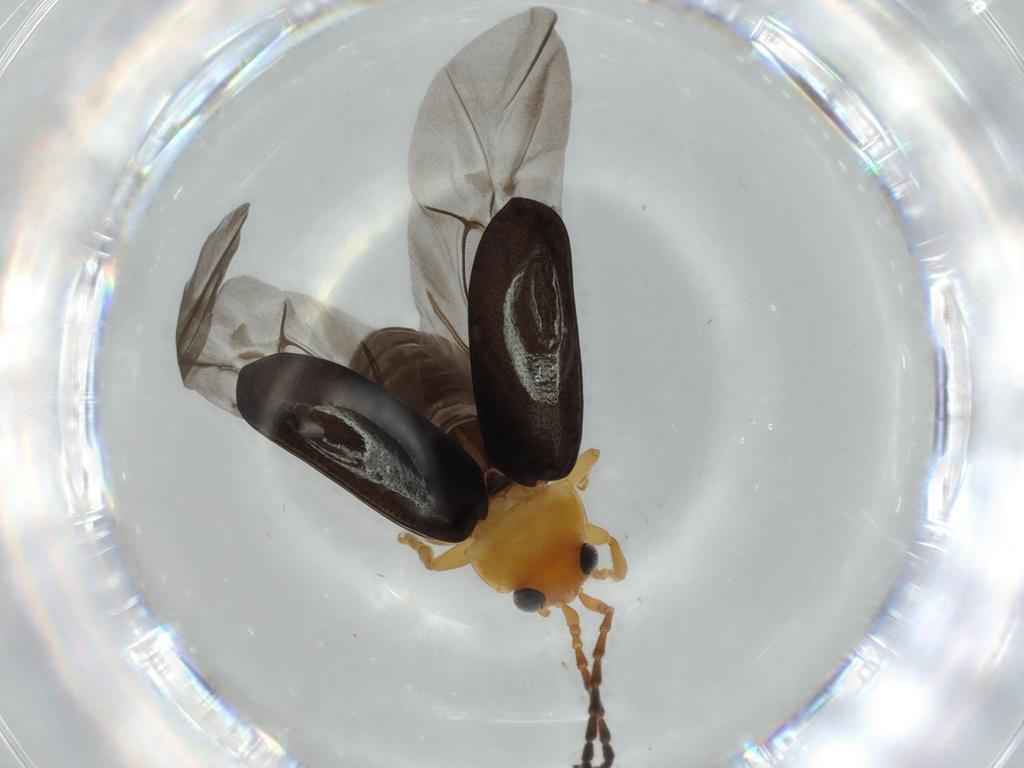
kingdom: Animalia
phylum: Arthropoda
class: Insecta
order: Coleoptera
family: Chrysomelidae
